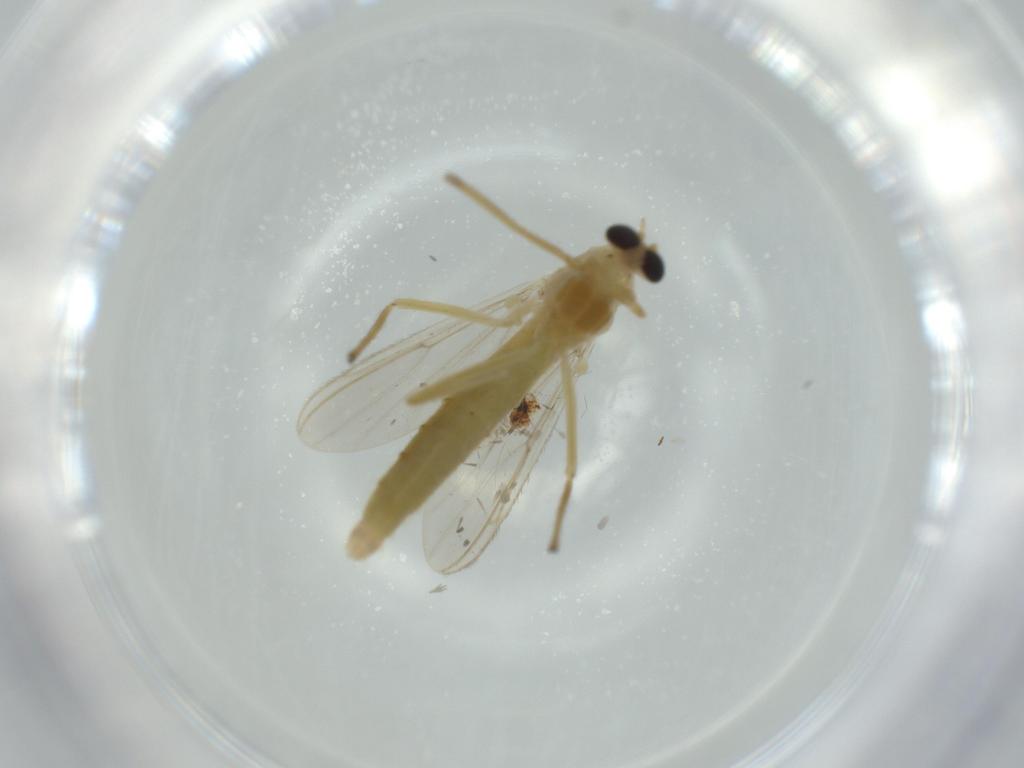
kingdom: Animalia
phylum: Arthropoda
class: Insecta
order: Diptera
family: Chironomidae
